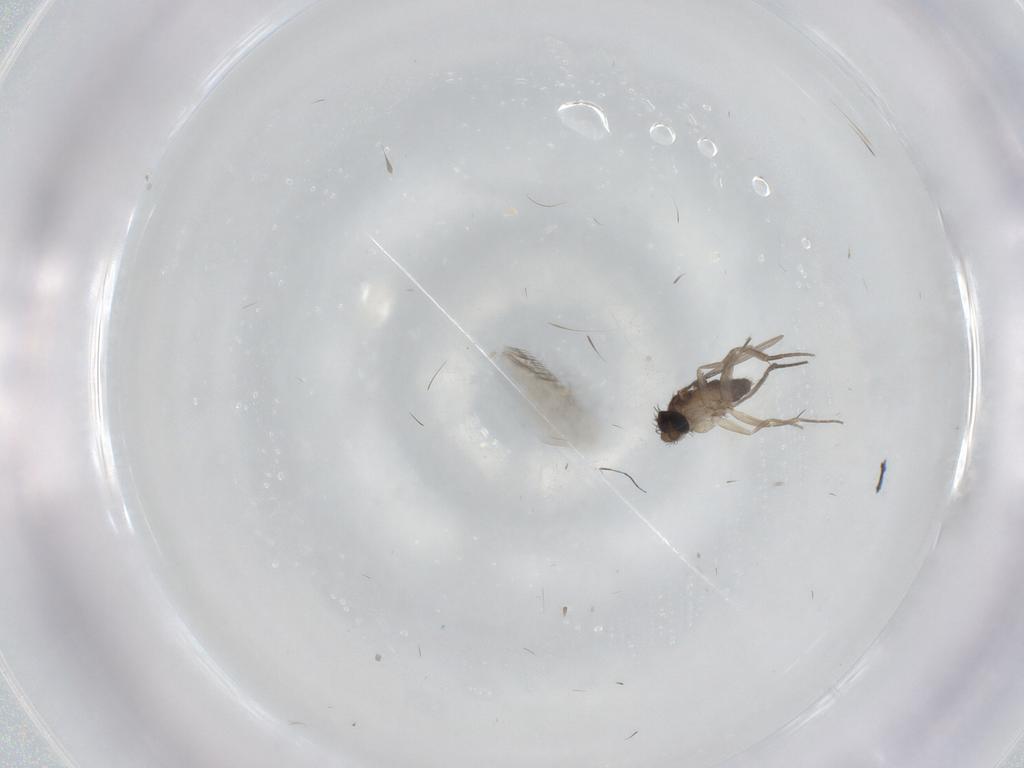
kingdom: Animalia
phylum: Arthropoda
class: Insecta
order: Diptera
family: Phoridae
